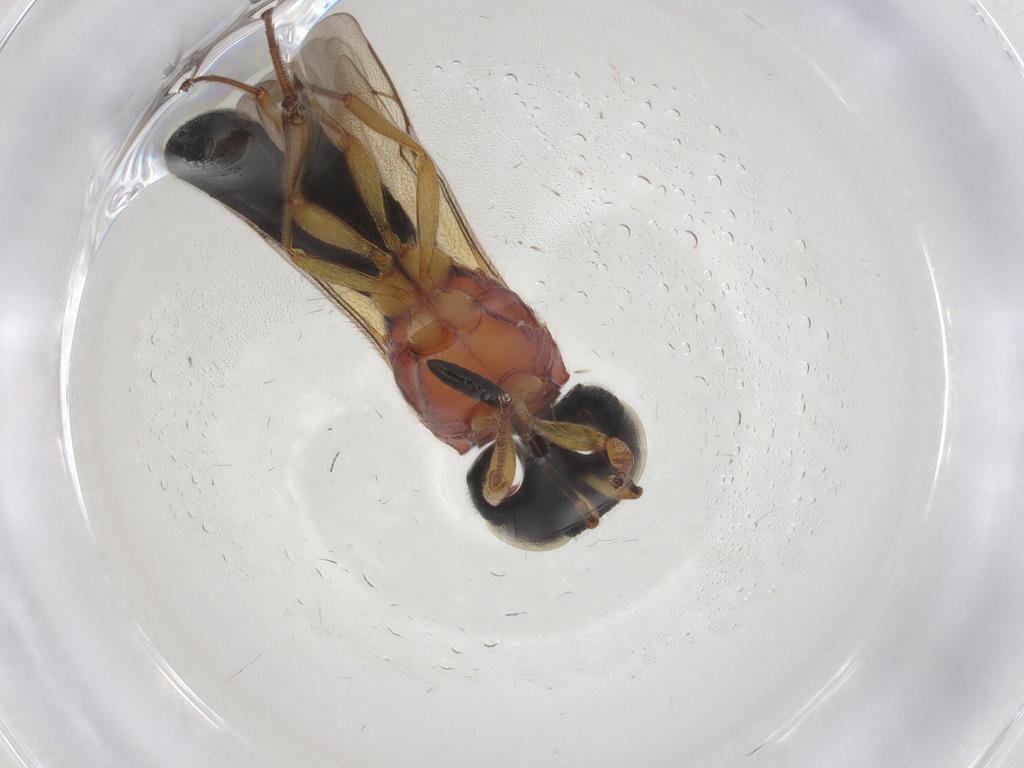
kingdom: Animalia
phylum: Arthropoda
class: Insecta
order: Hymenoptera
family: Scelionidae
